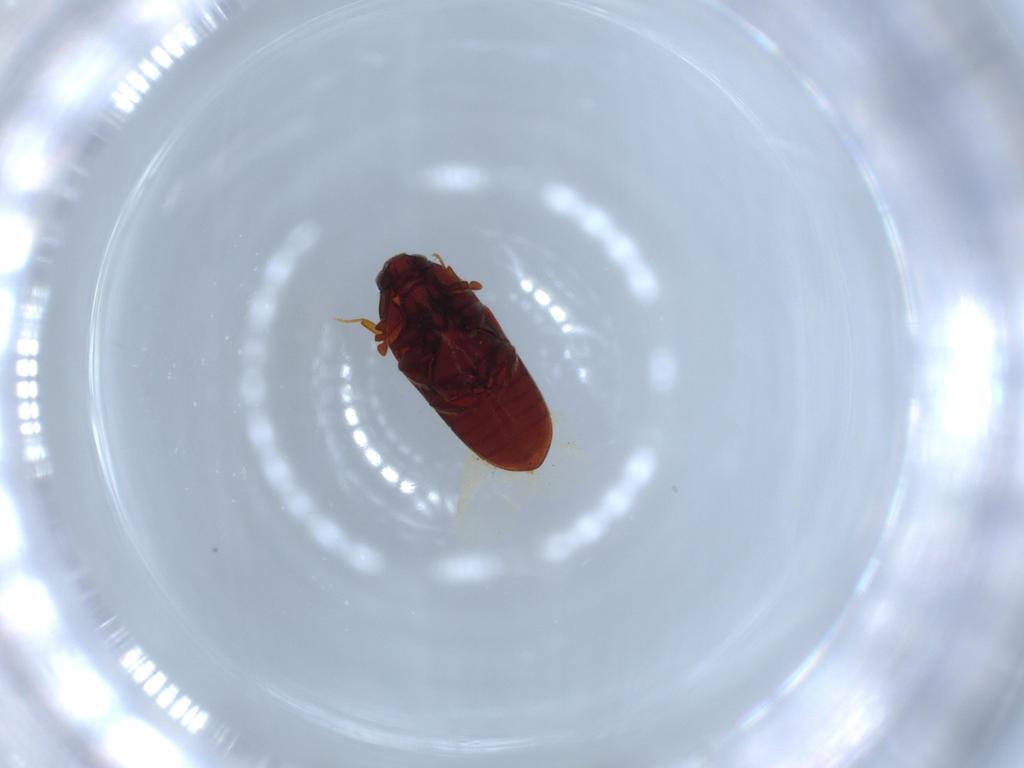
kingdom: Animalia
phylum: Arthropoda
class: Insecta
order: Coleoptera
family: Throscidae
